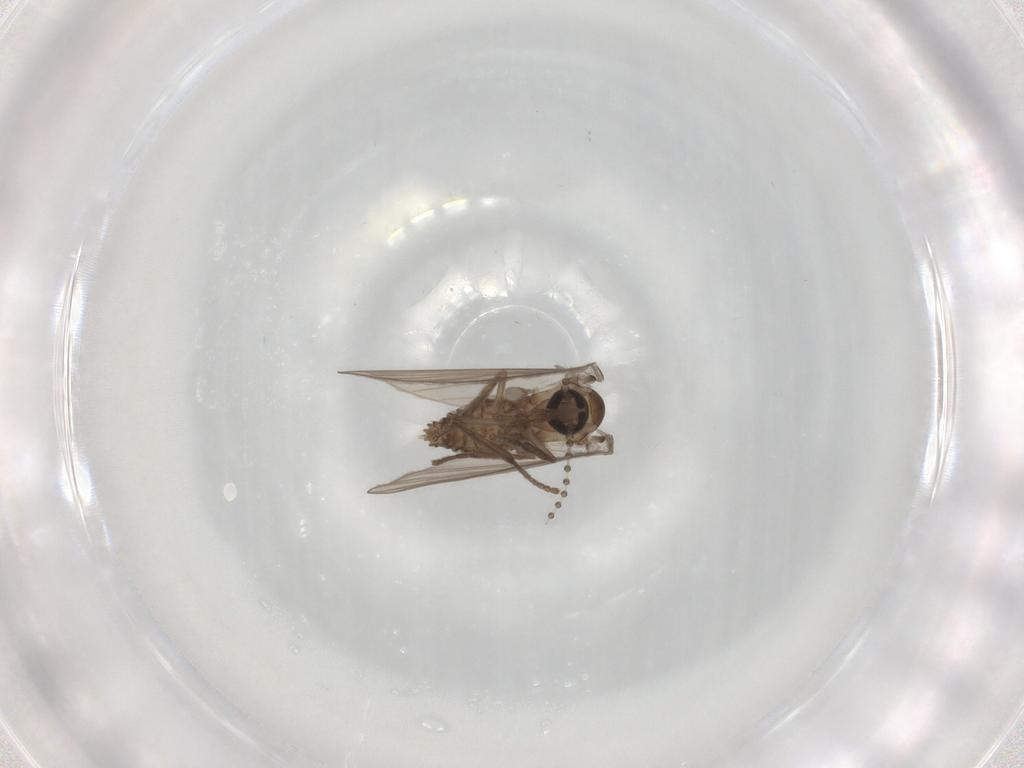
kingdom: Animalia
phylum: Arthropoda
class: Insecta
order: Diptera
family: Psychodidae
